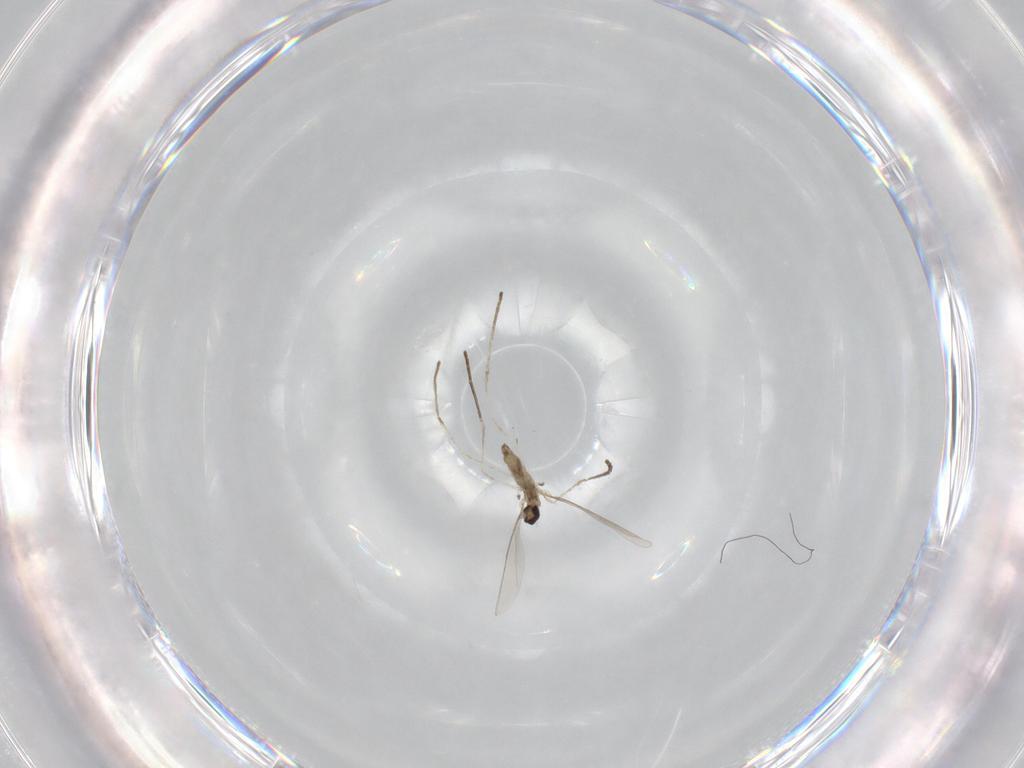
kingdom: Animalia
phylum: Arthropoda
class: Insecta
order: Diptera
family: Cecidomyiidae
